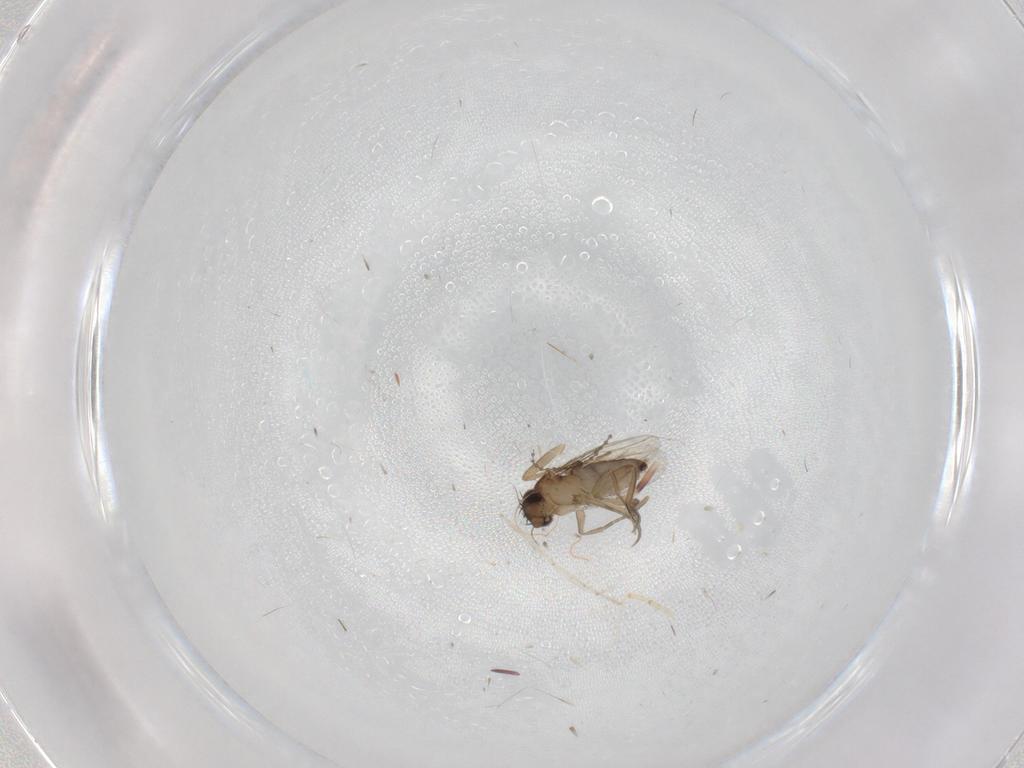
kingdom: Animalia
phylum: Arthropoda
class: Insecta
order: Diptera
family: Phoridae
